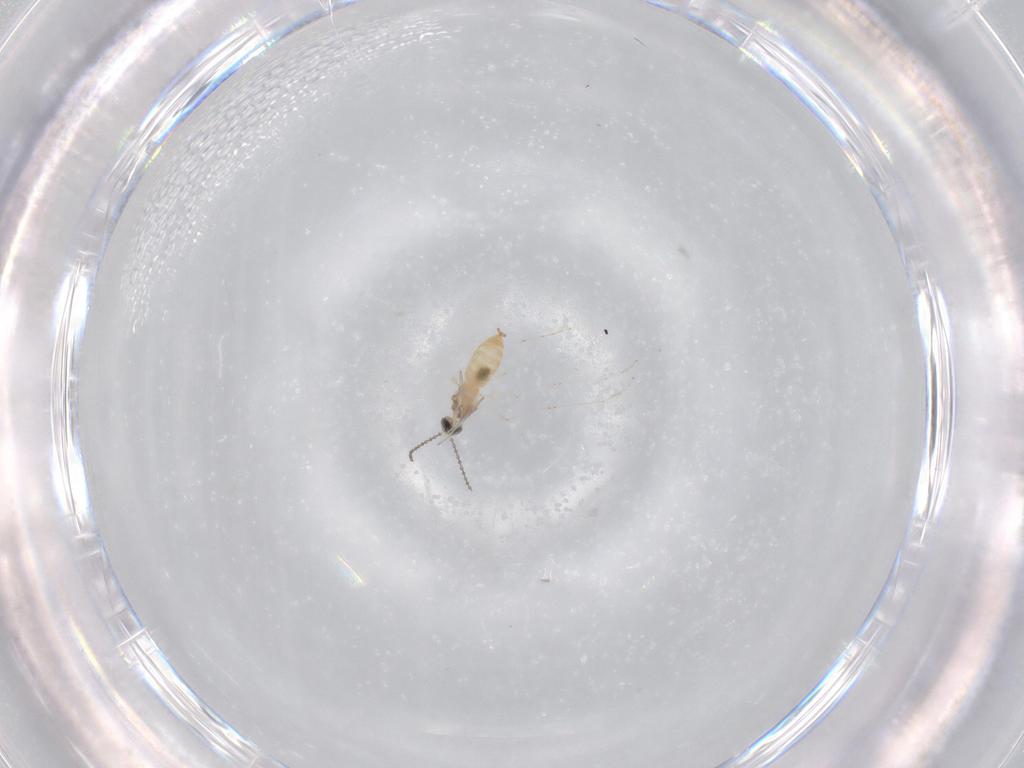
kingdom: Animalia
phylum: Arthropoda
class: Insecta
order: Diptera
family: Cecidomyiidae
